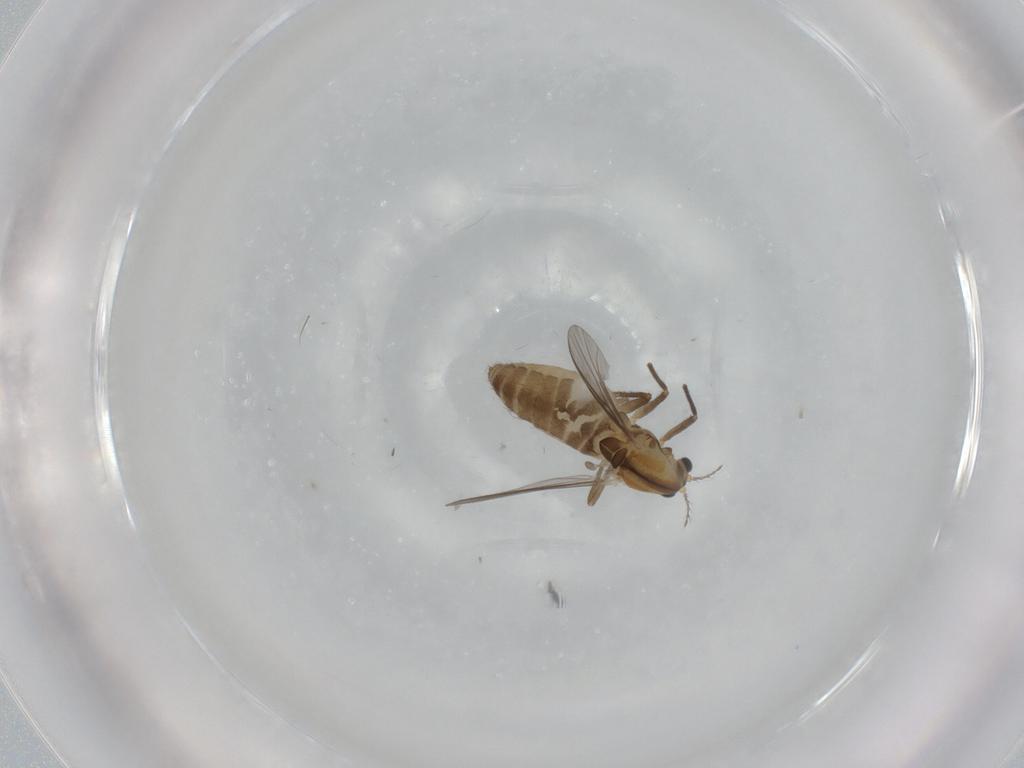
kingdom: Animalia
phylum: Arthropoda
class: Insecta
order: Diptera
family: Chironomidae
